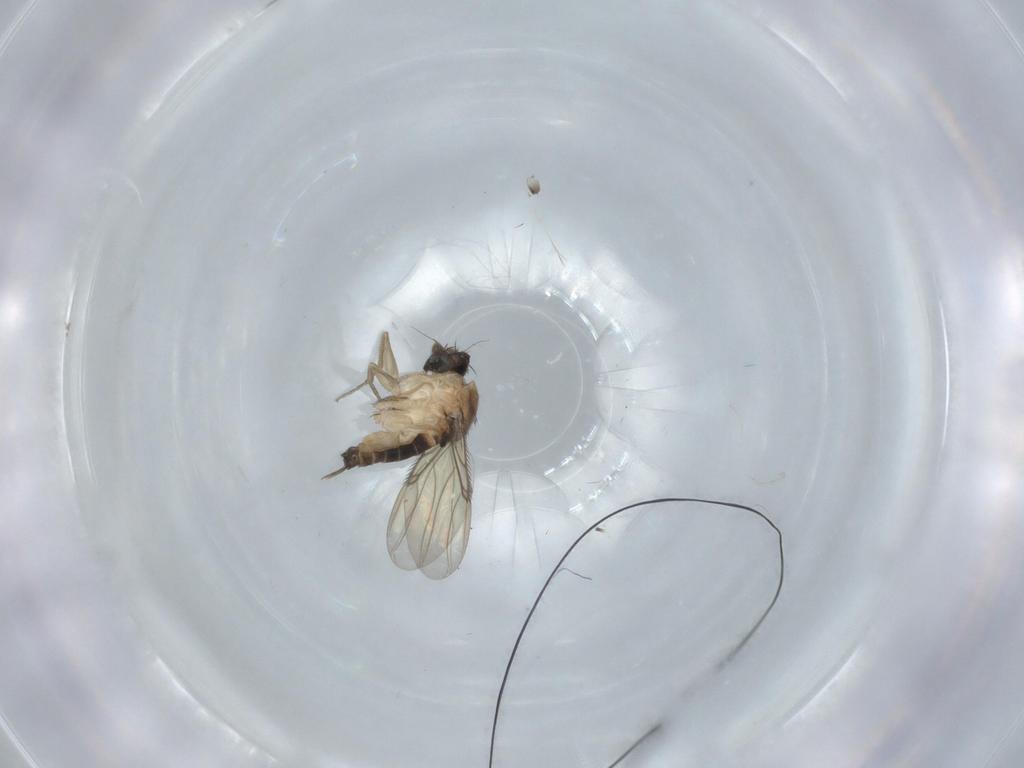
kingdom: Animalia
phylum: Arthropoda
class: Insecta
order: Diptera
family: Phoridae
